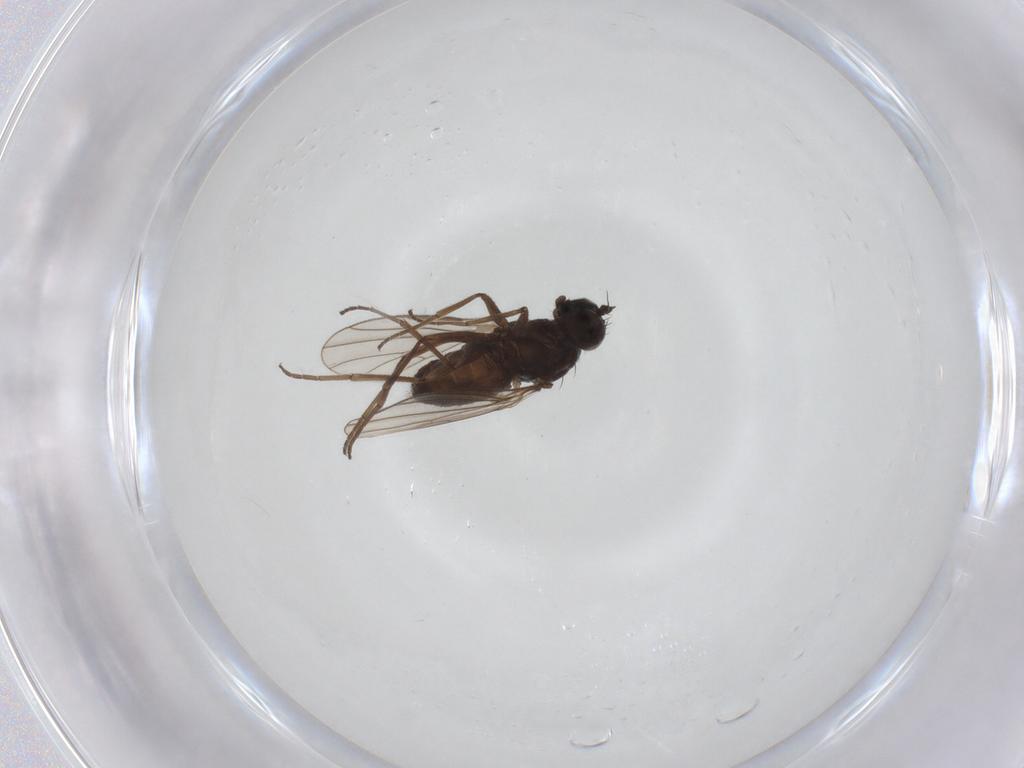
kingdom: Animalia
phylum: Arthropoda
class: Insecta
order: Diptera
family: Dolichopodidae
